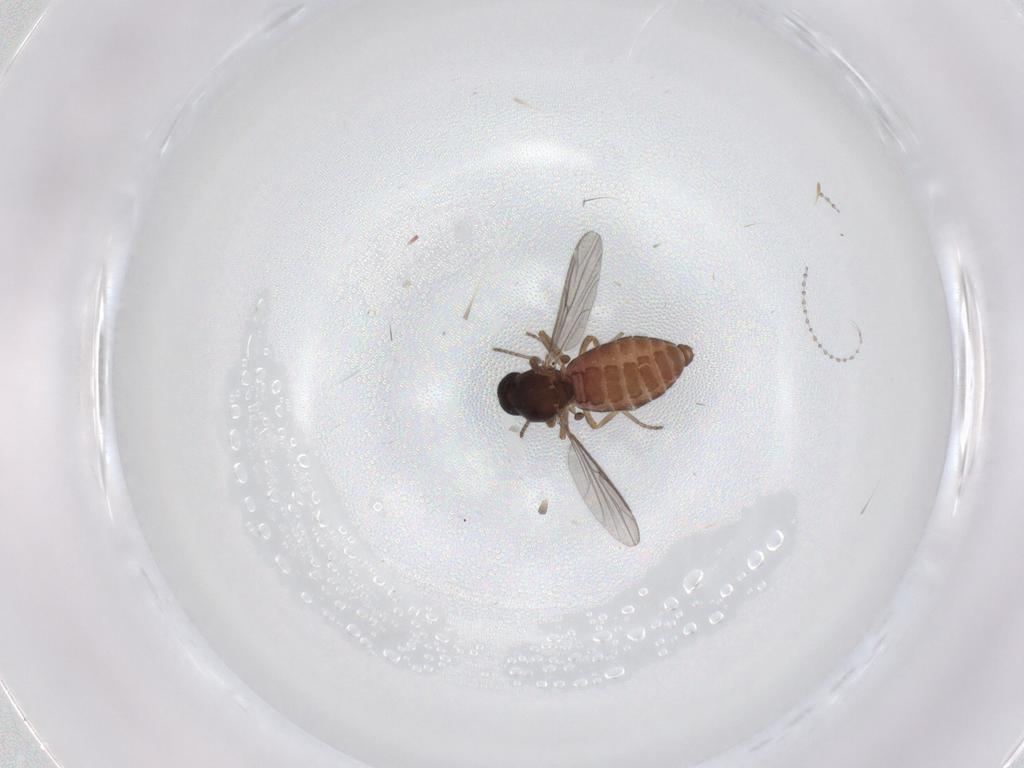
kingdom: Animalia
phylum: Arthropoda
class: Insecta
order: Diptera
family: Ceratopogonidae
